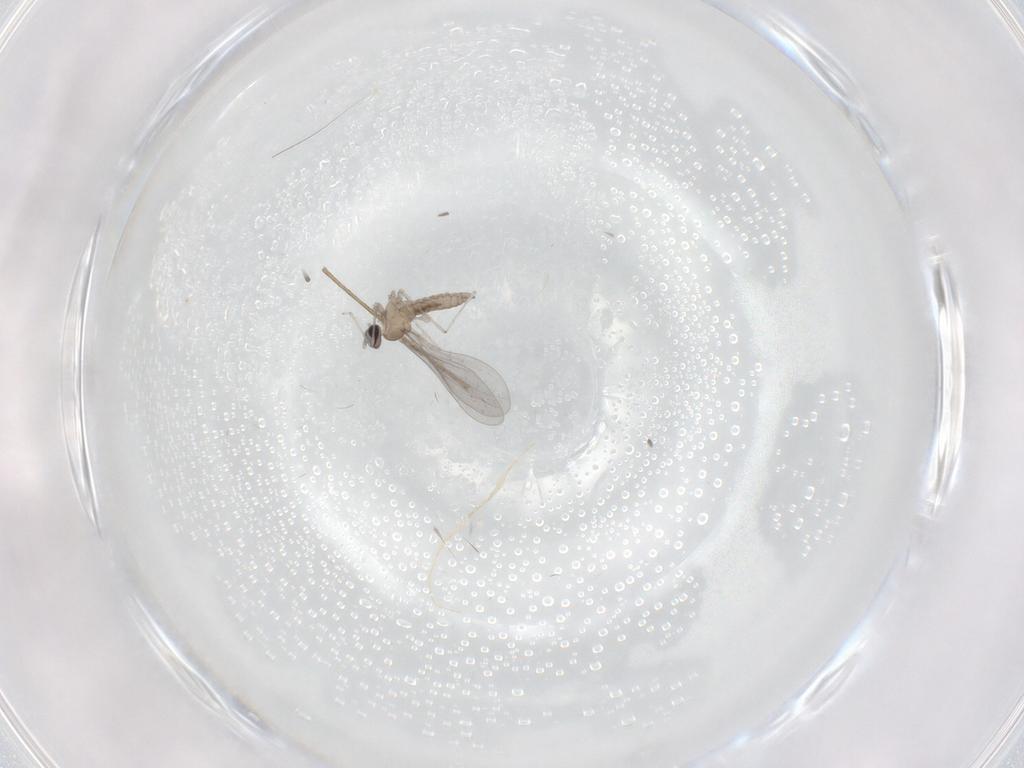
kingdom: Animalia
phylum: Arthropoda
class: Insecta
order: Diptera
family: Cecidomyiidae
